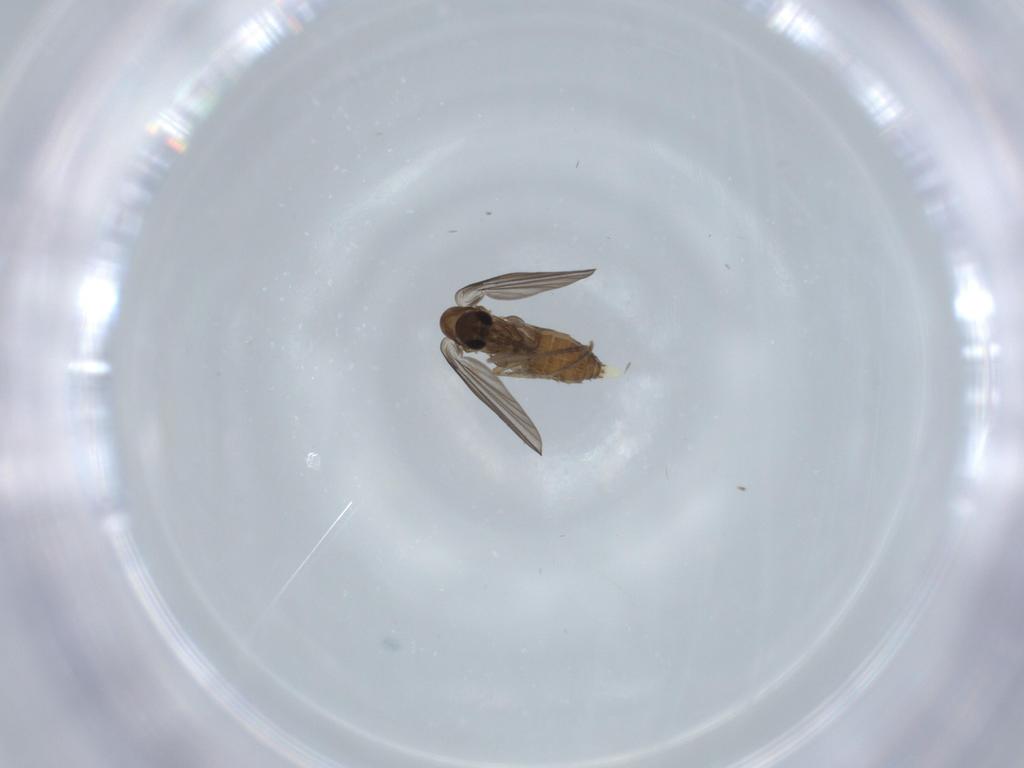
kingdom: Animalia
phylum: Arthropoda
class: Insecta
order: Diptera
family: Psychodidae
